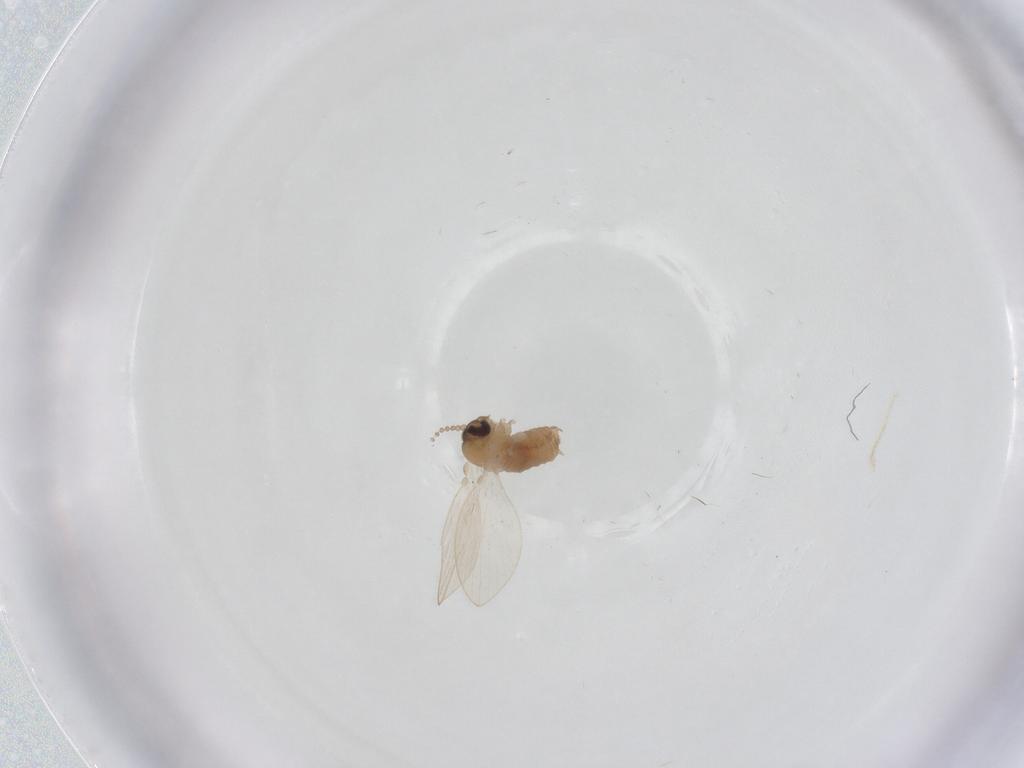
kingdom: Animalia
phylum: Arthropoda
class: Insecta
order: Diptera
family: Psychodidae
